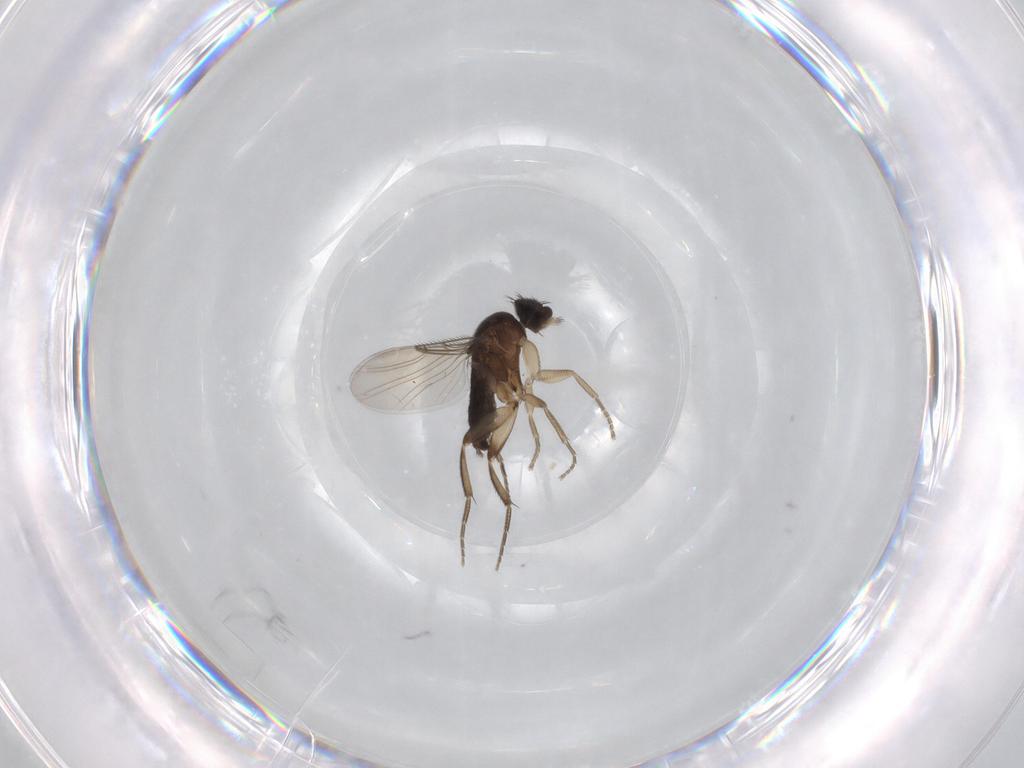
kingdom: Animalia
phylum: Arthropoda
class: Insecta
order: Diptera
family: Phoridae
